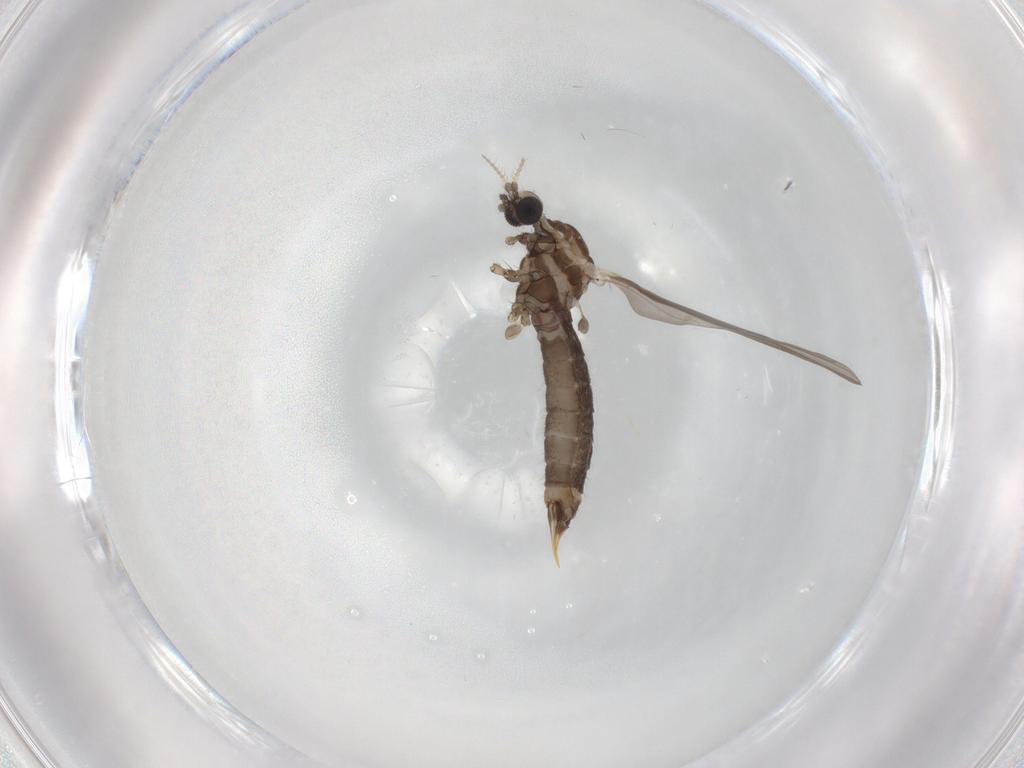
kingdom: Animalia
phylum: Arthropoda
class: Insecta
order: Diptera
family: Limoniidae
